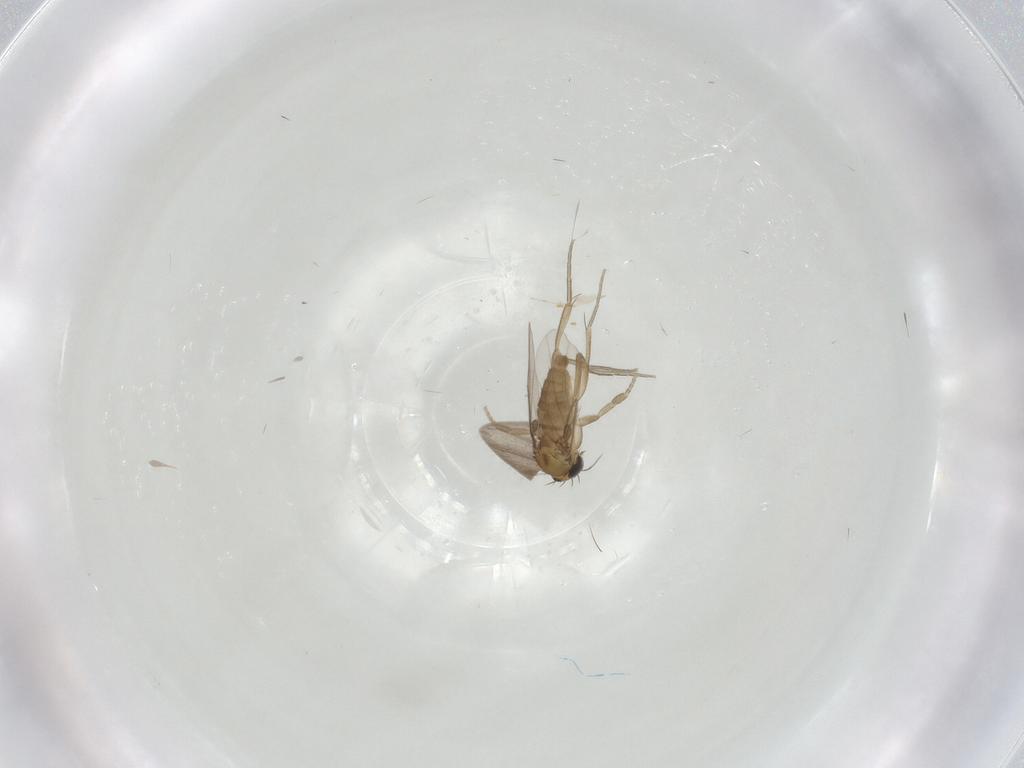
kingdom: Animalia
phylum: Arthropoda
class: Insecta
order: Diptera
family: Phoridae
